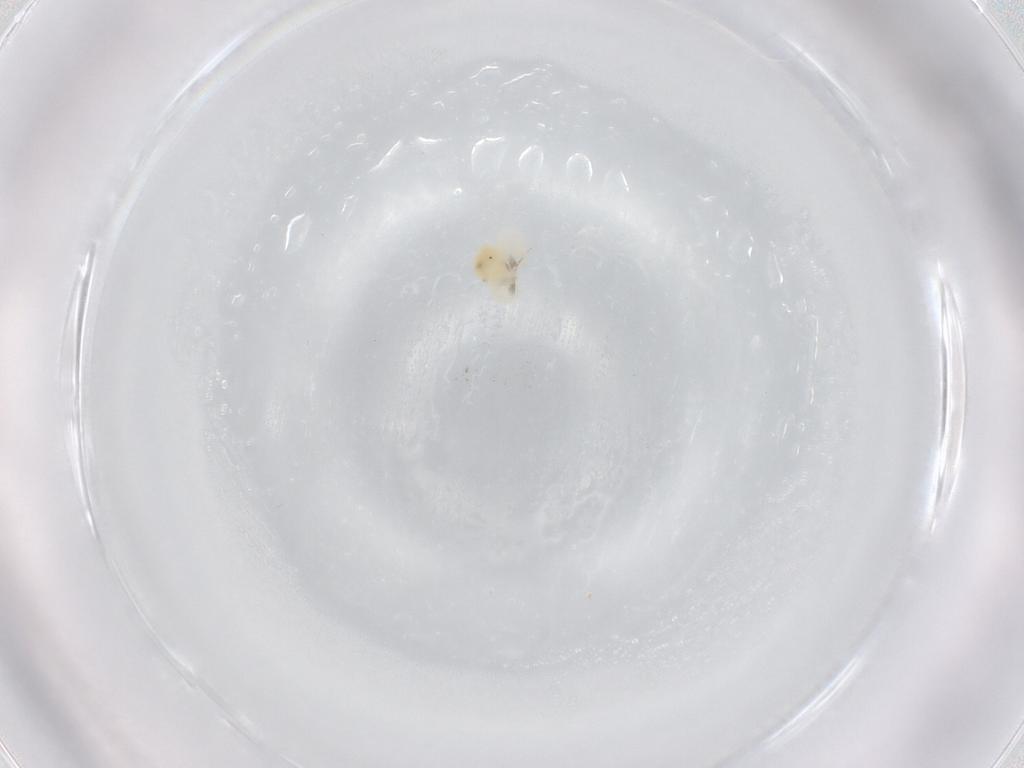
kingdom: Animalia
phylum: Arthropoda
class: Arachnida
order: Trombidiformes
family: Anystidae
